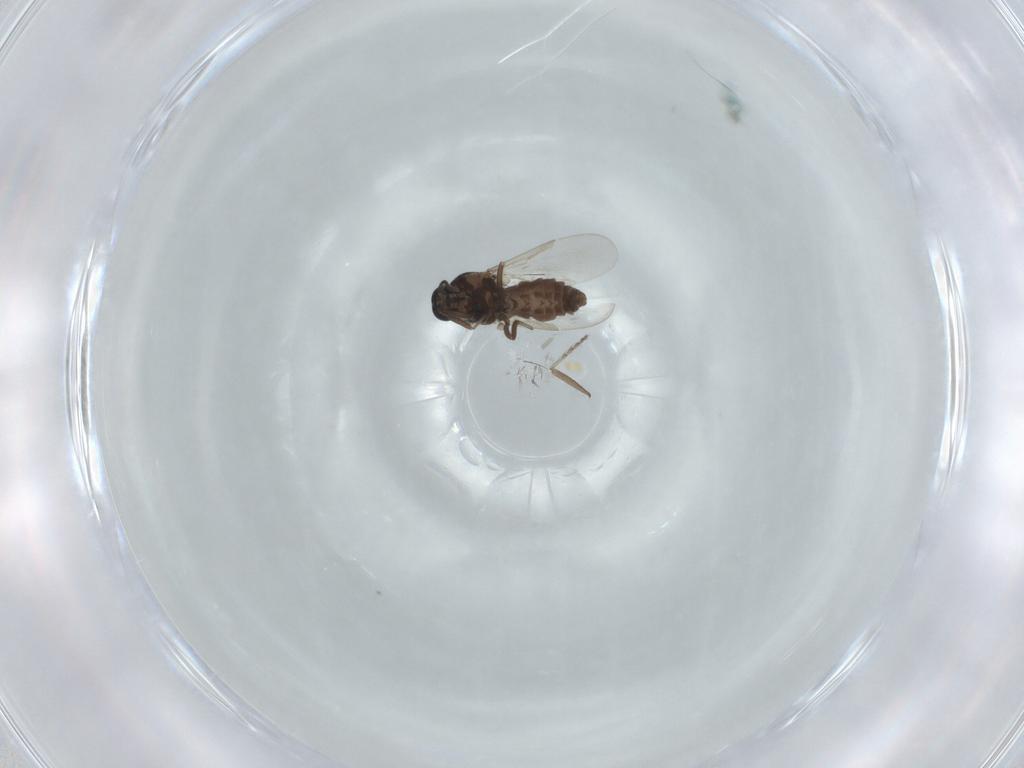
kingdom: Animalia
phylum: Arthropoda
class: Insecta
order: Diptera
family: Ceratopogonidae
